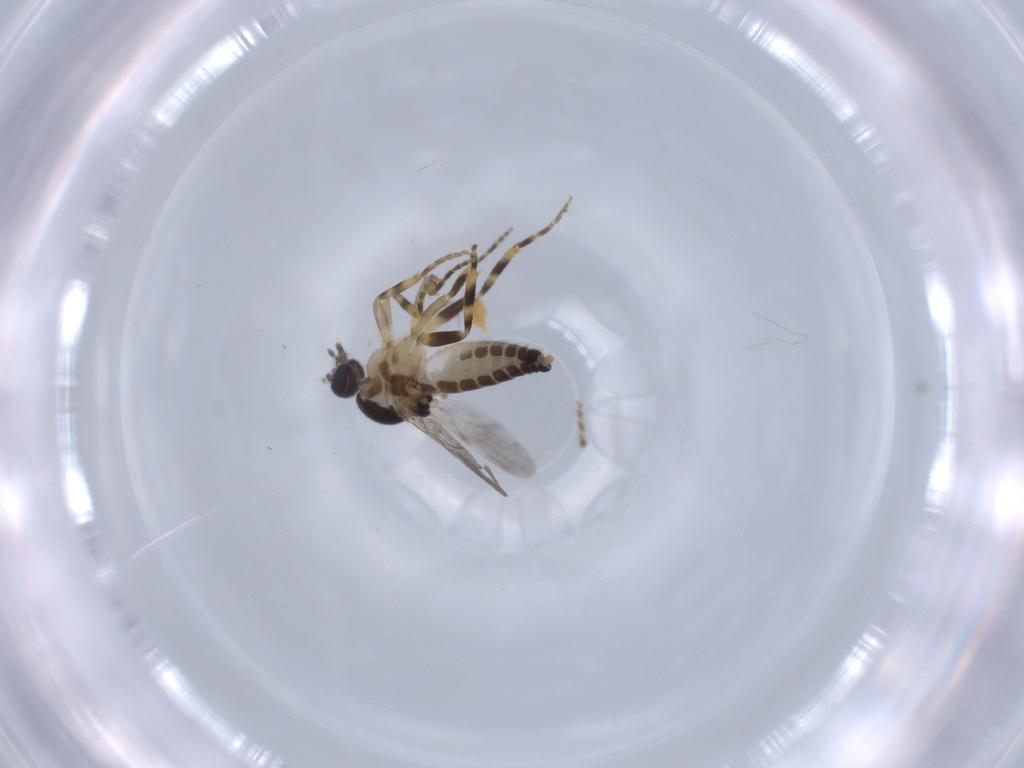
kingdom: Animalia
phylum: Arthropoda
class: Insecta
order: Diptera
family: Ceratopogonidae
